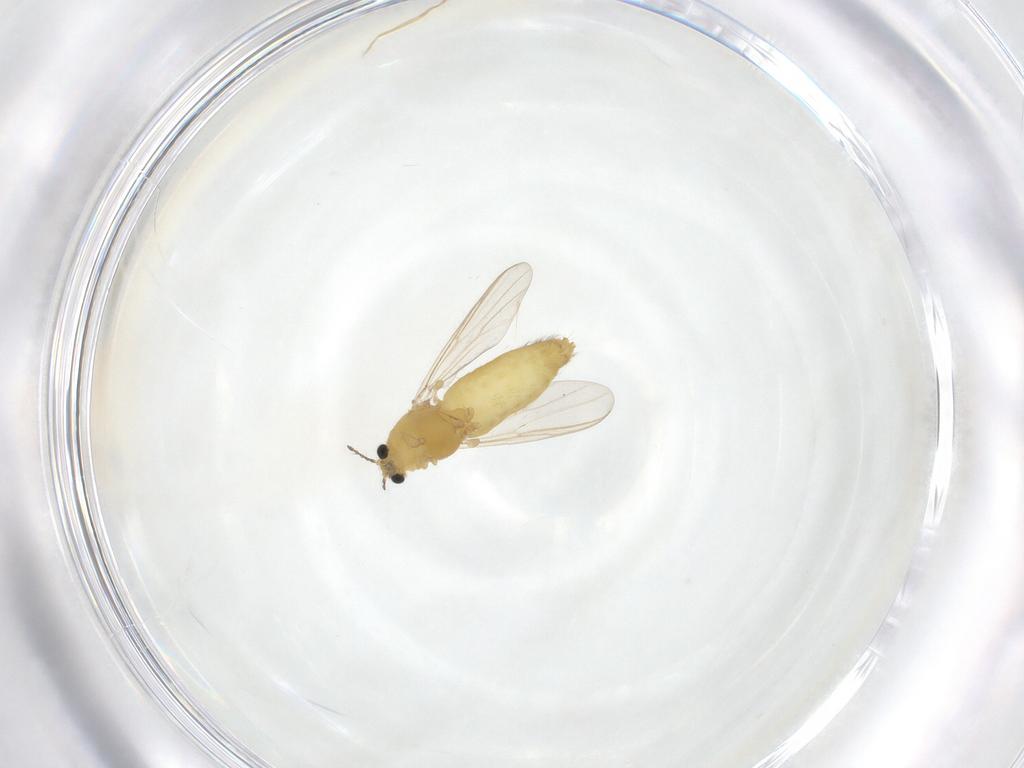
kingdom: Animalia
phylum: Arthropoda
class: Insecta
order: Diptera
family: Chironomidae
